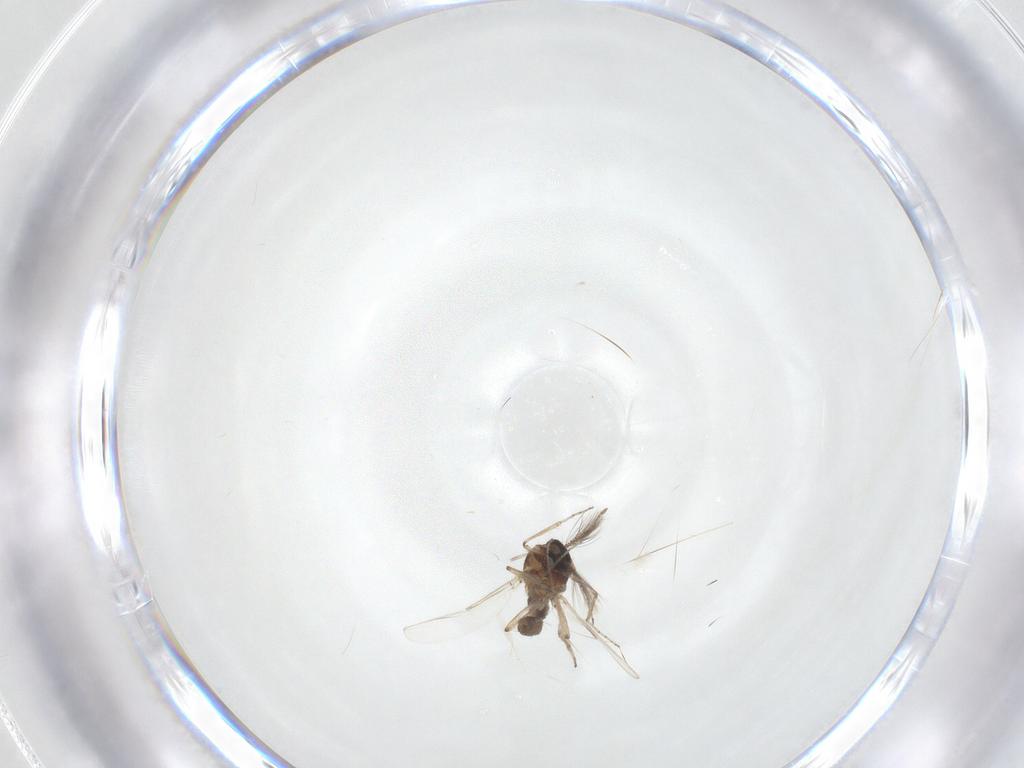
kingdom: Animalia
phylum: Arthropoda
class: Insecta
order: Diptera
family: Ceratopogonidae
